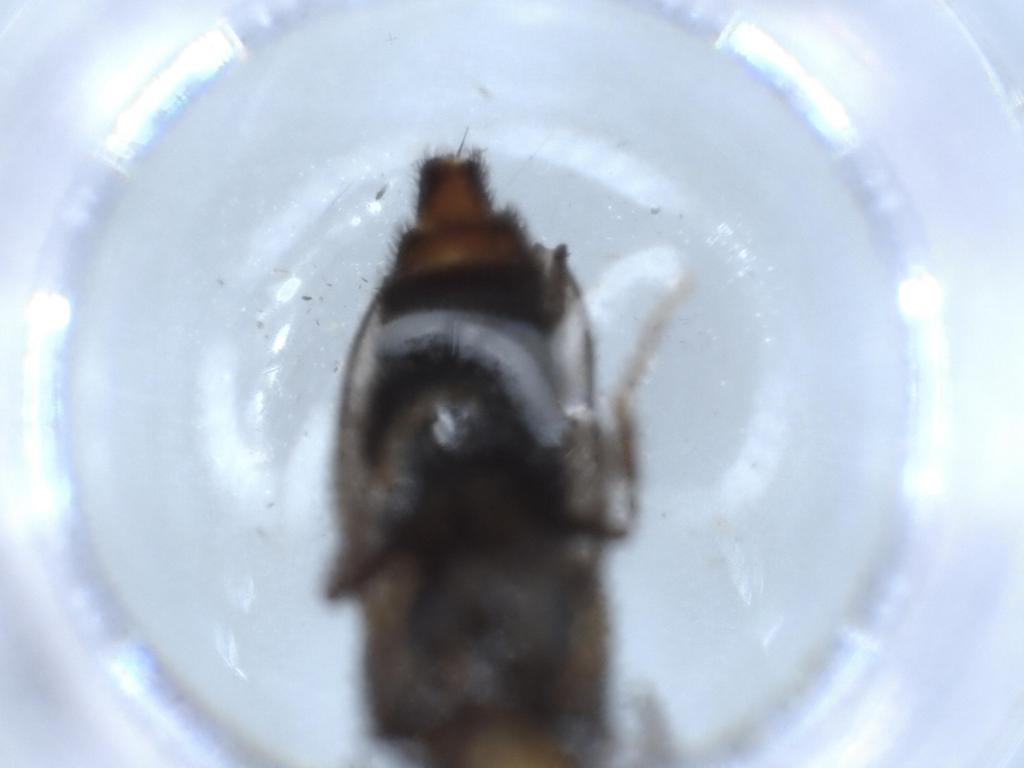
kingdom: Animalia
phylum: Arthropoda
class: Insecta
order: Coleoptera
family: Phengodidae
